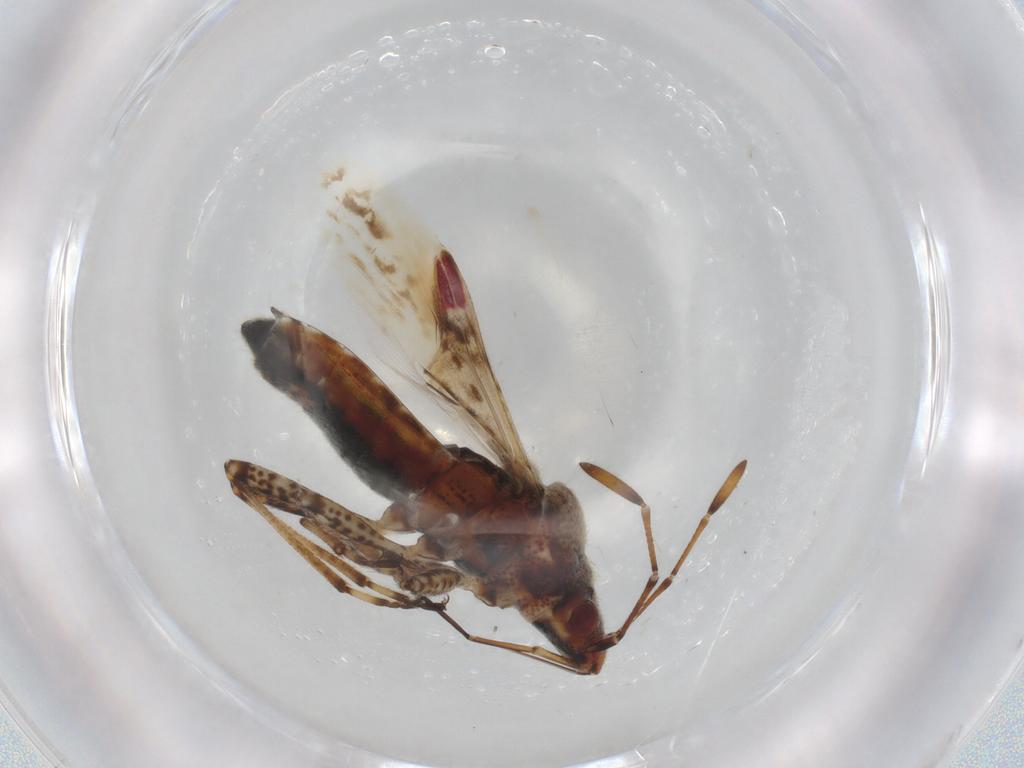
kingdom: Animalia
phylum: Arthropoda
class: Insecta
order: Hemiptera
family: Lygaeidae
